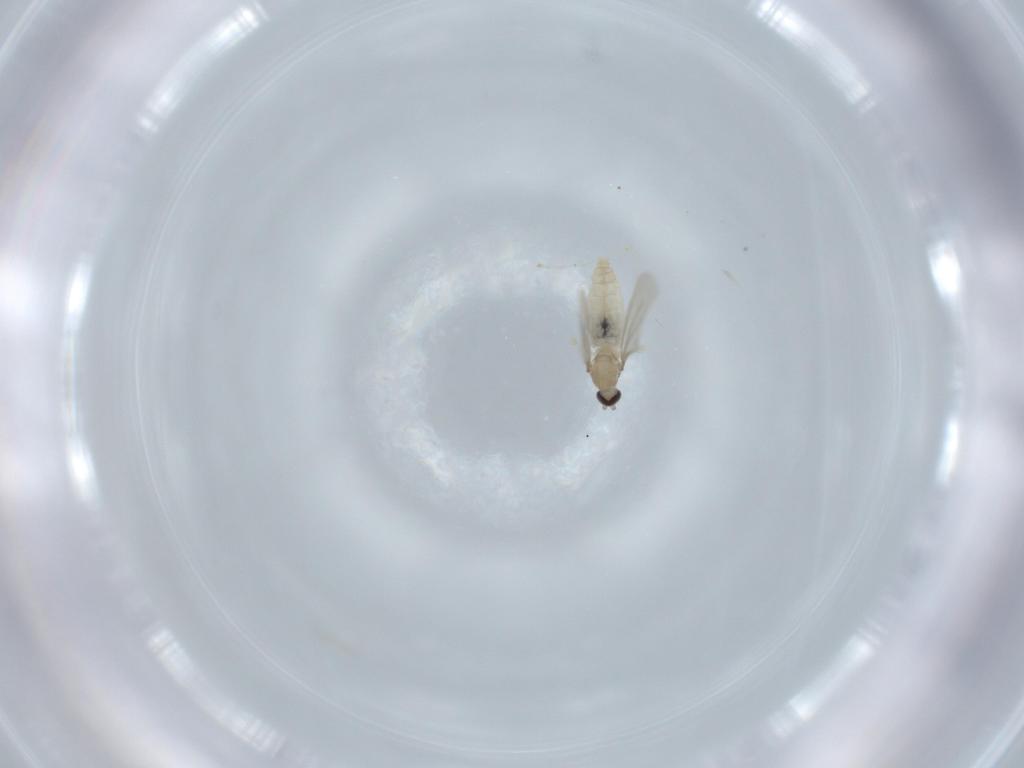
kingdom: Animalia
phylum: Arthropoda
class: Insecta
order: Diptera
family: Cecidomyiidae
